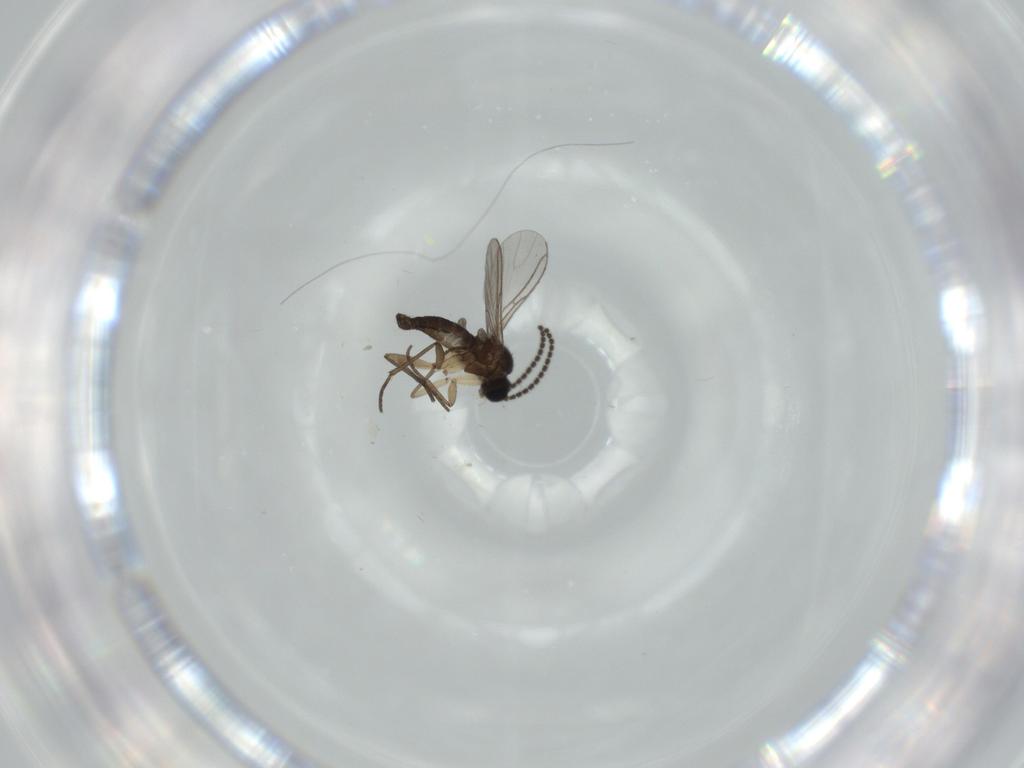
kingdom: Animalia
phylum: Arthropoda
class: Insecta
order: Diptera
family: Sciaridae
